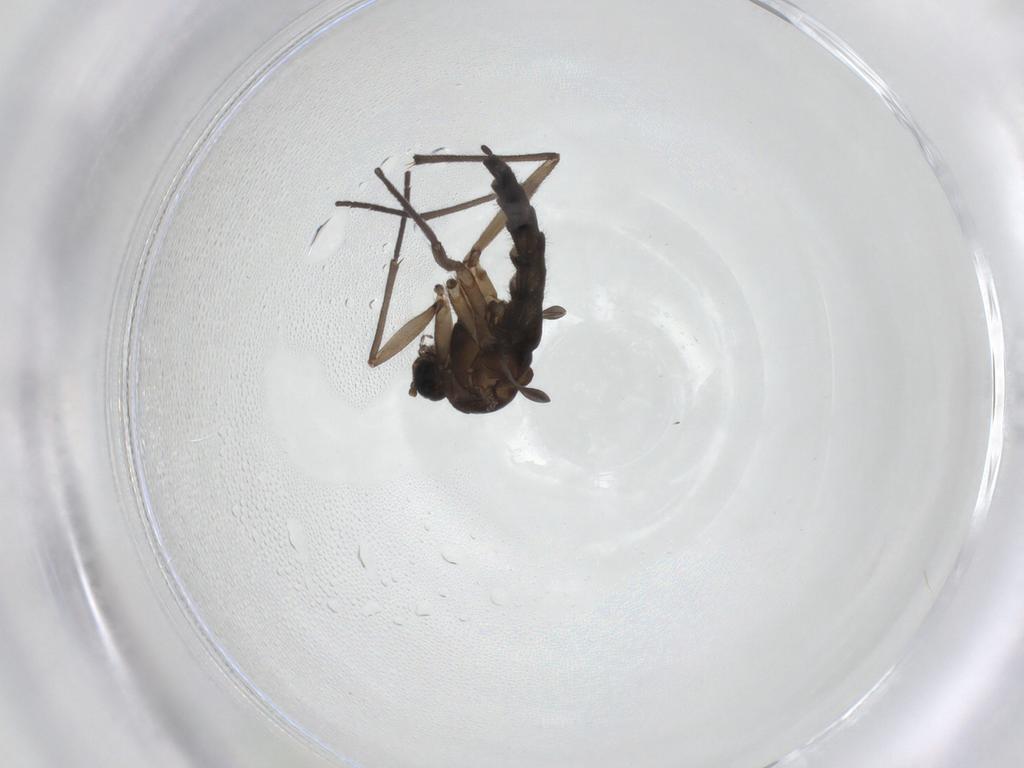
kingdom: Animalia
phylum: Arthropoda
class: Insecta
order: Diptera
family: Sciaridae
